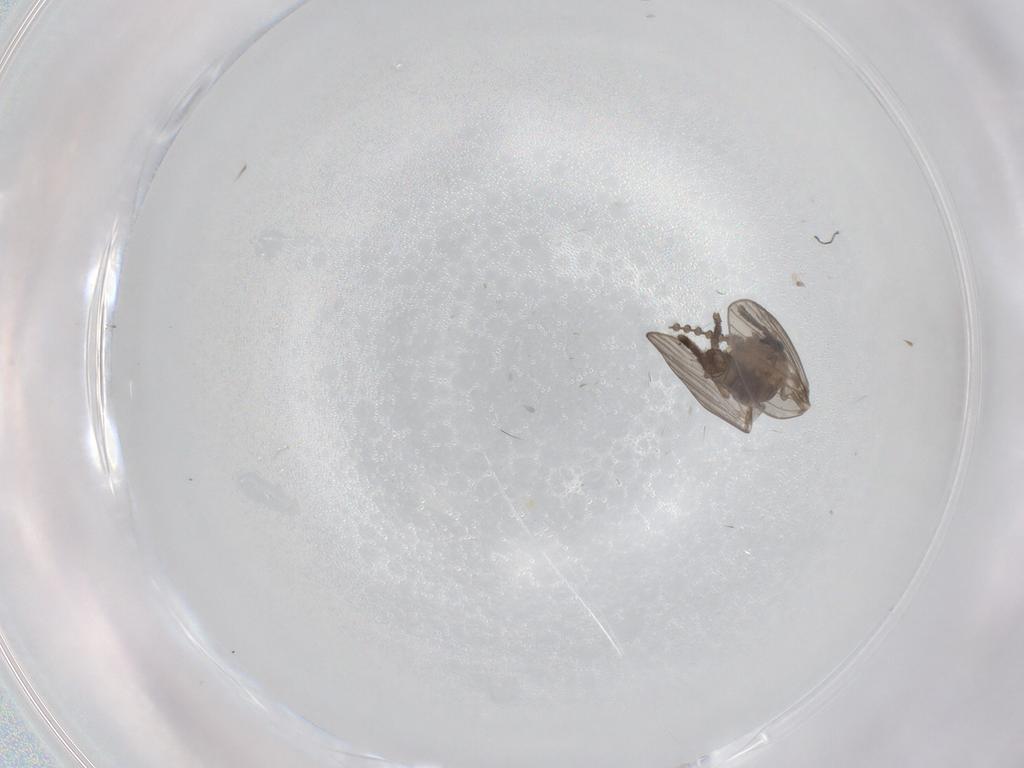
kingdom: Animalia
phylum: Arthropoda
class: Insecta
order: Diptera
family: Psychodidae
